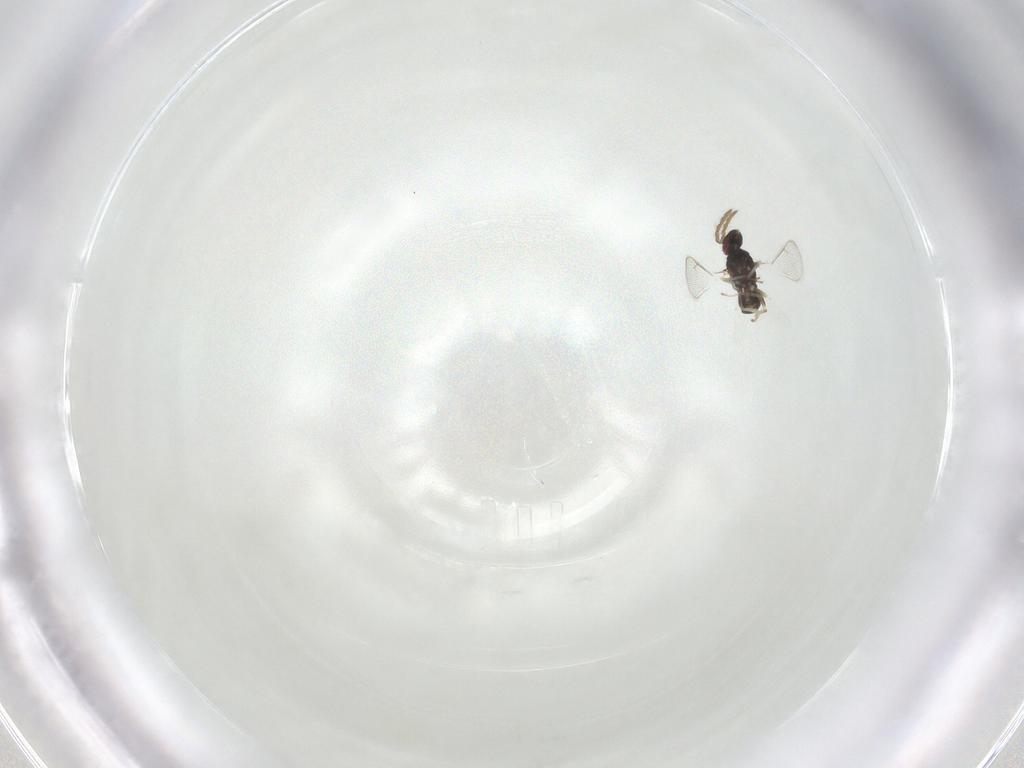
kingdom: Animalia
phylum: Arthropoda
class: Insecta
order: Hymenoptera
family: Eulophidae
